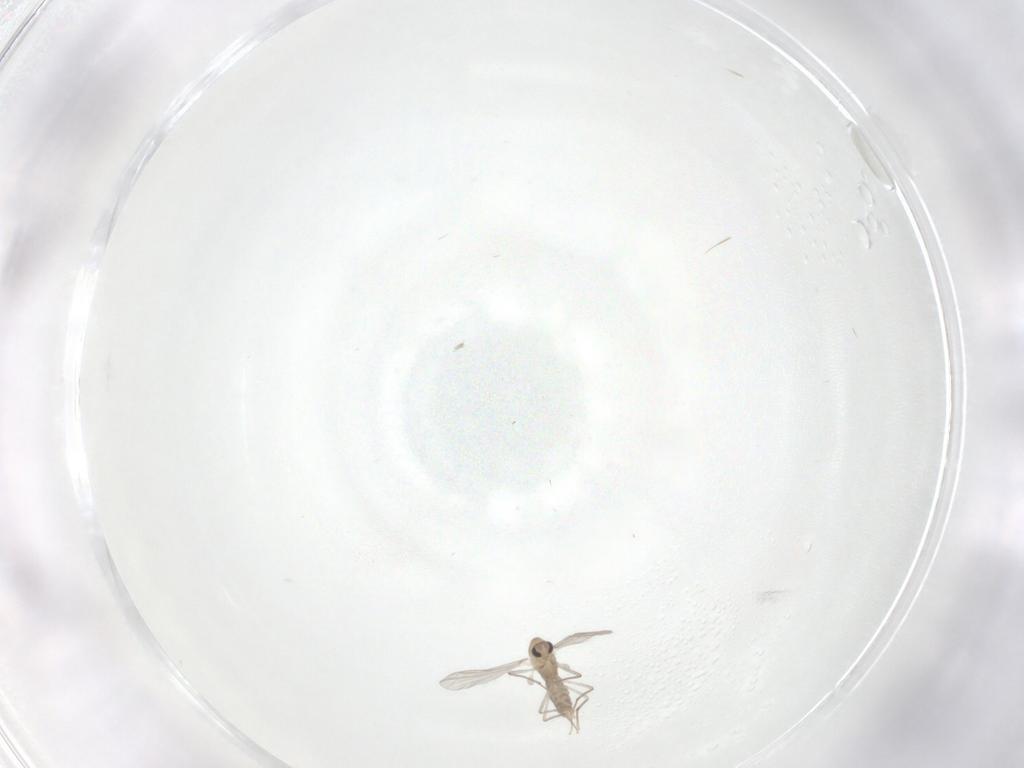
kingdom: Animalia
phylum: Arthropoda
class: Insecta
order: Diptera
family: Chironomidae
